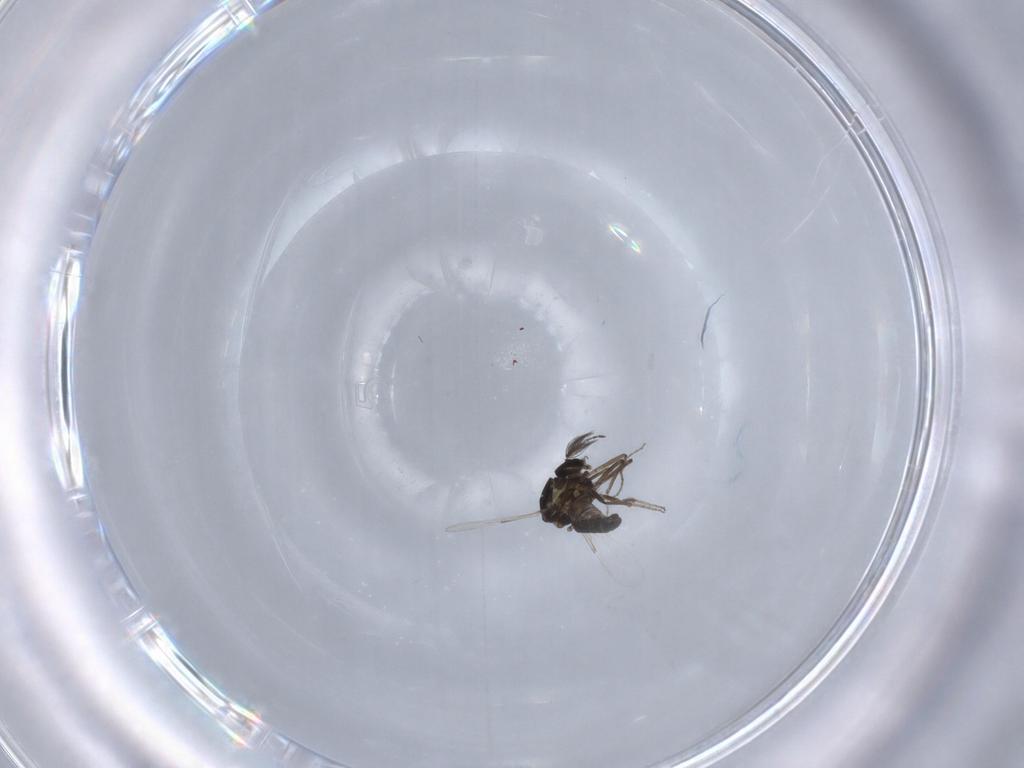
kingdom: Animalia
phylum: Arthropoda
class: Insecta
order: Diptera
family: Ceratopogonidae
